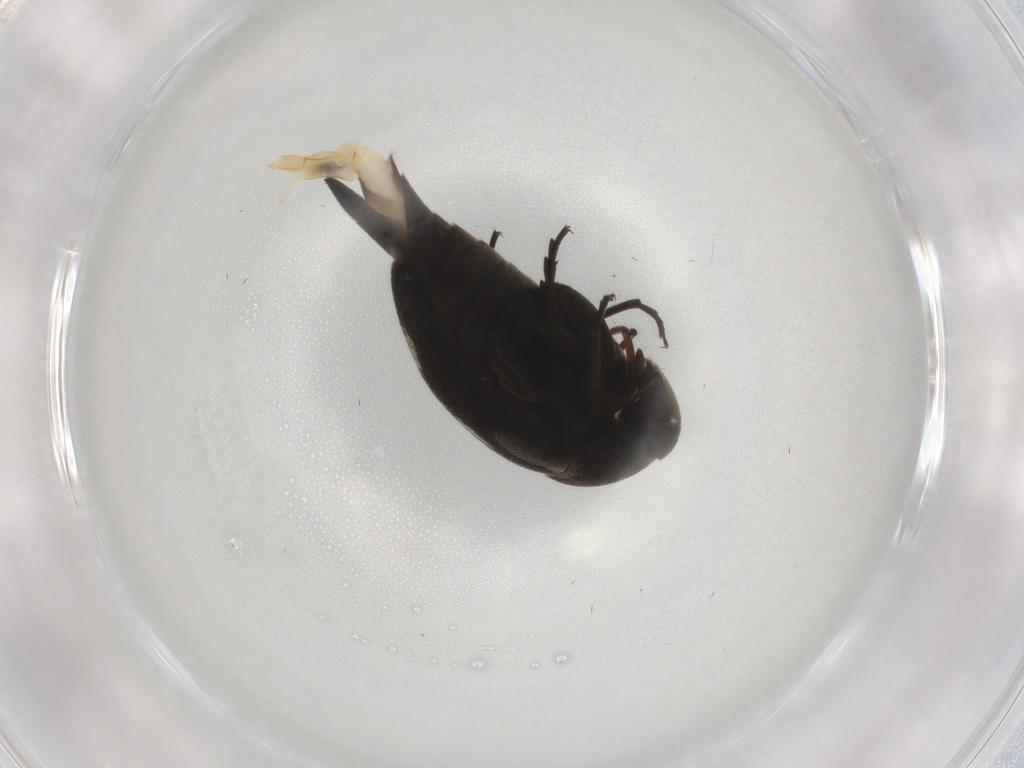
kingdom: Animalia
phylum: Arthropoda
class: Insecta
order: Coleoptera
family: Mordellidae
